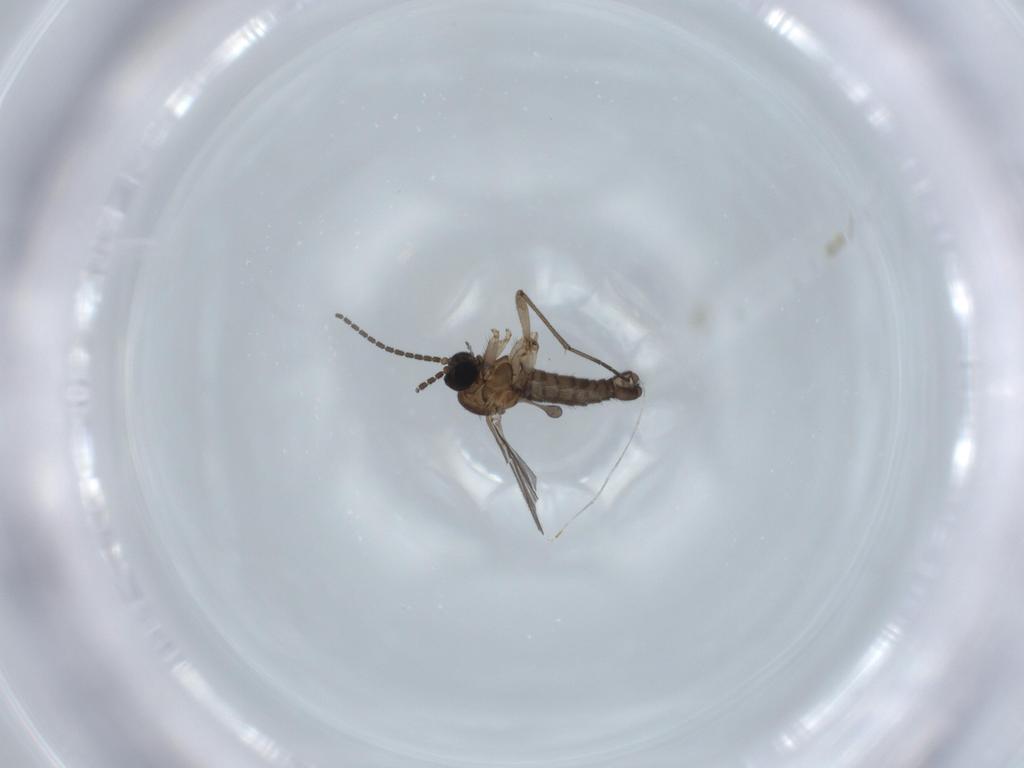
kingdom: Animalia
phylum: Arthropoda
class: Insecta
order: Diptera
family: Sciaridae
